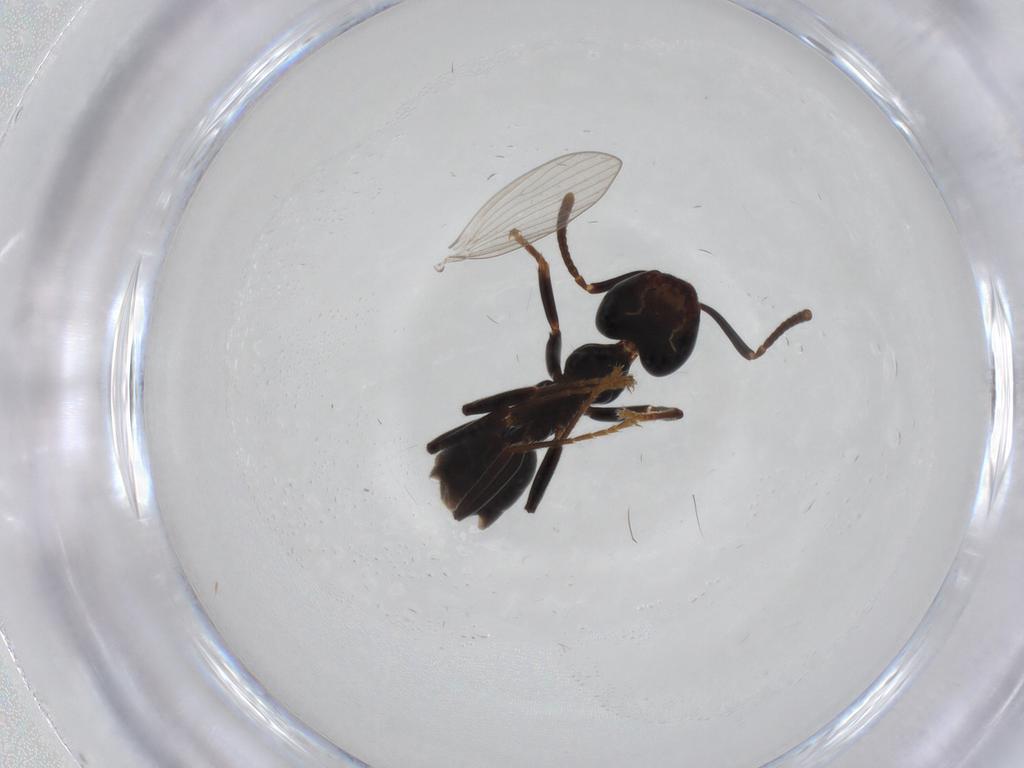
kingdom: Animalia
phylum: Arthropoda
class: Insecta
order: Hymenoptera
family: Formicidae
